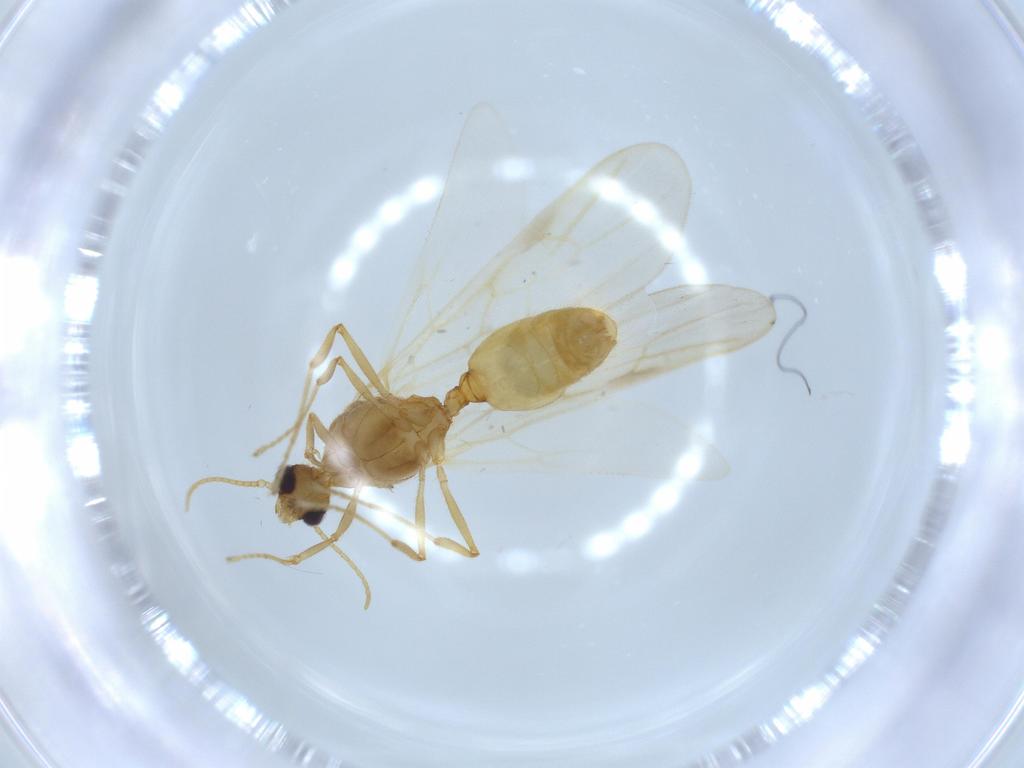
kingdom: Animalia
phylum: Arthropoda
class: Insecta
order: Hymenoptera
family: Formicidae
